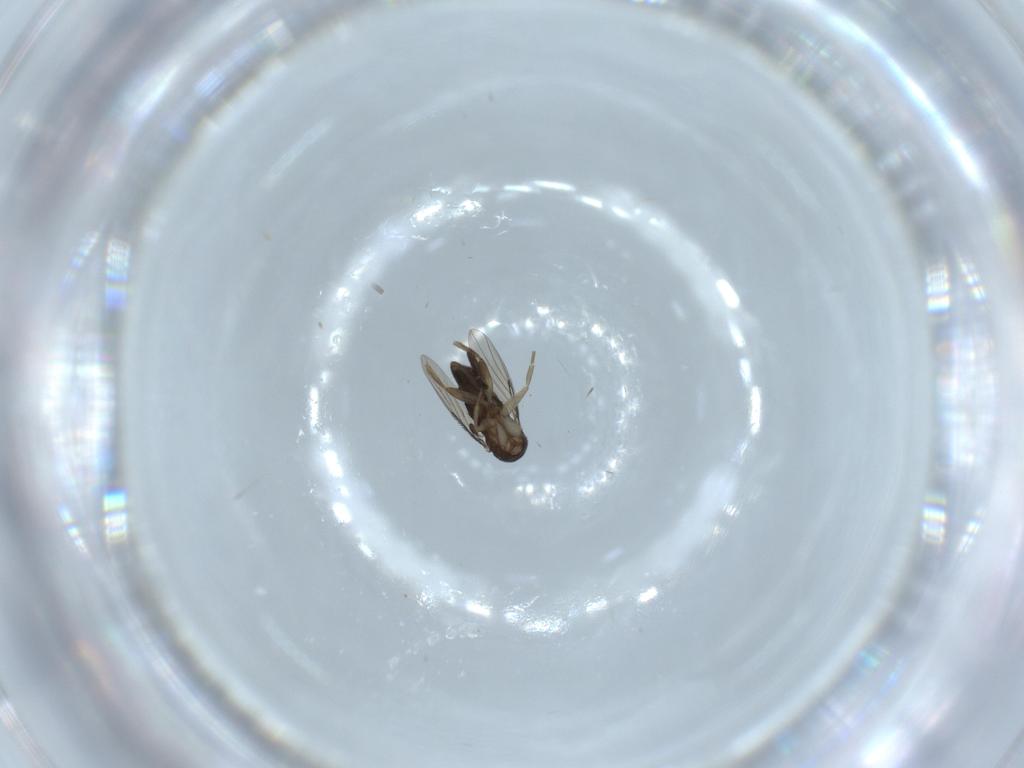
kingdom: Animalia
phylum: Arthropoda
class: Insecta
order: Diptera
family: Phoridae
